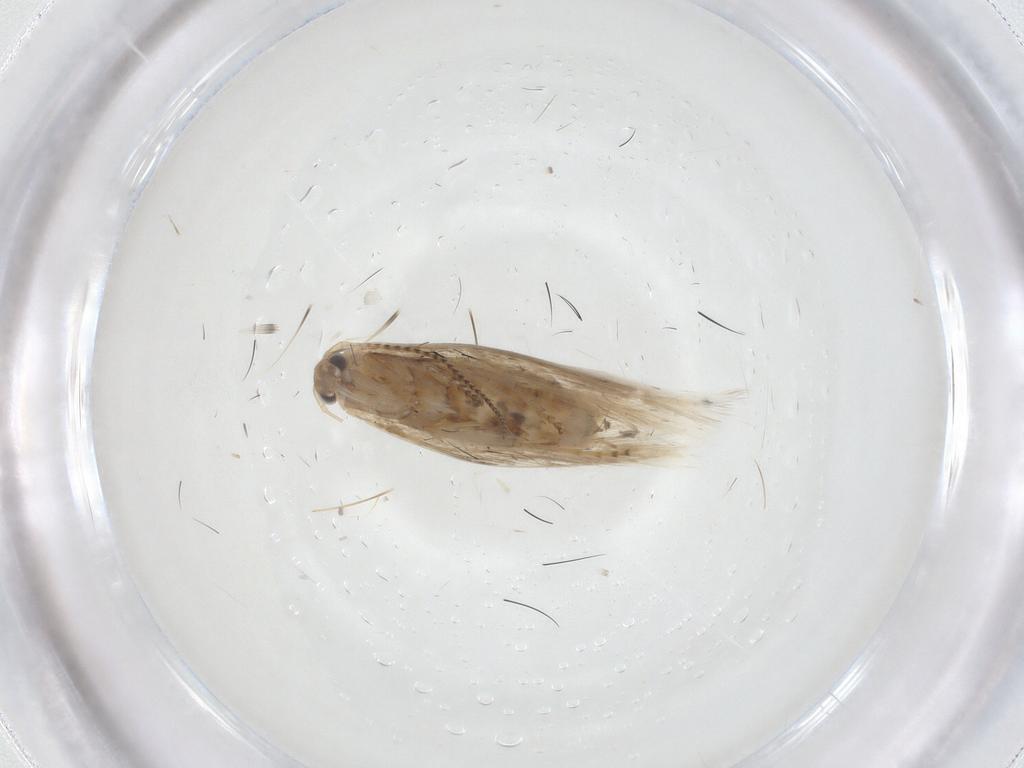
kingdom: Animalia
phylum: Arthropoda
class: Insecta
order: Lepidoptera
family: Bucculatricidae
